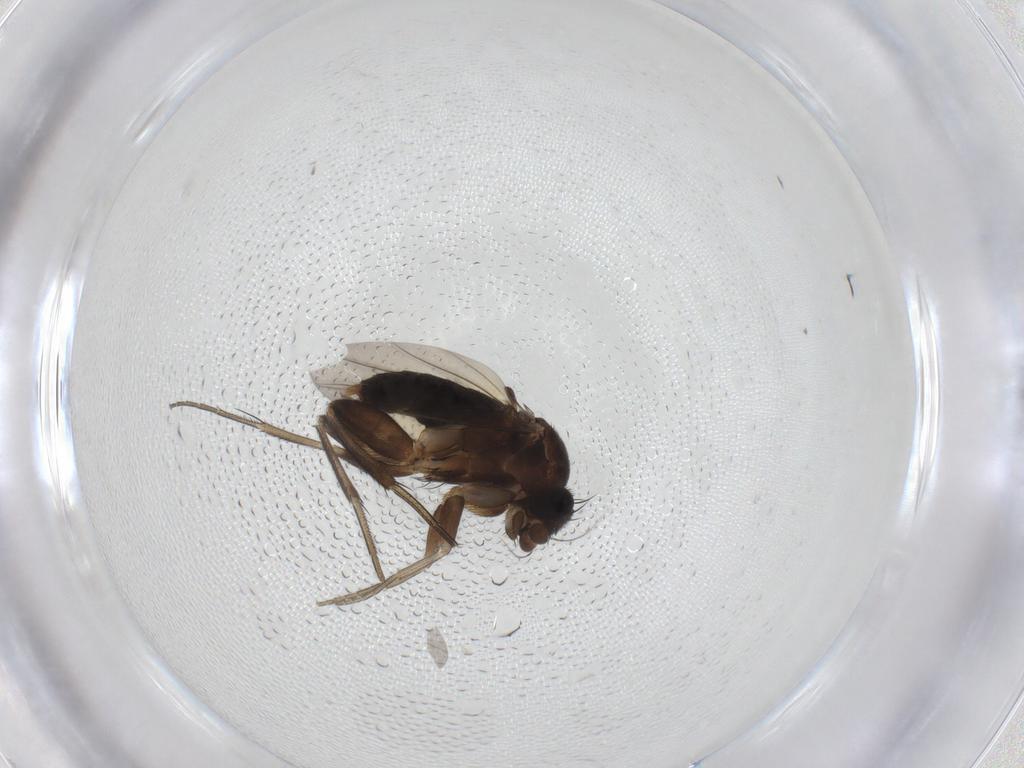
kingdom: Animalia
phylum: Arthropoda
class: Insecta
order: Diptera
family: Phoridae
